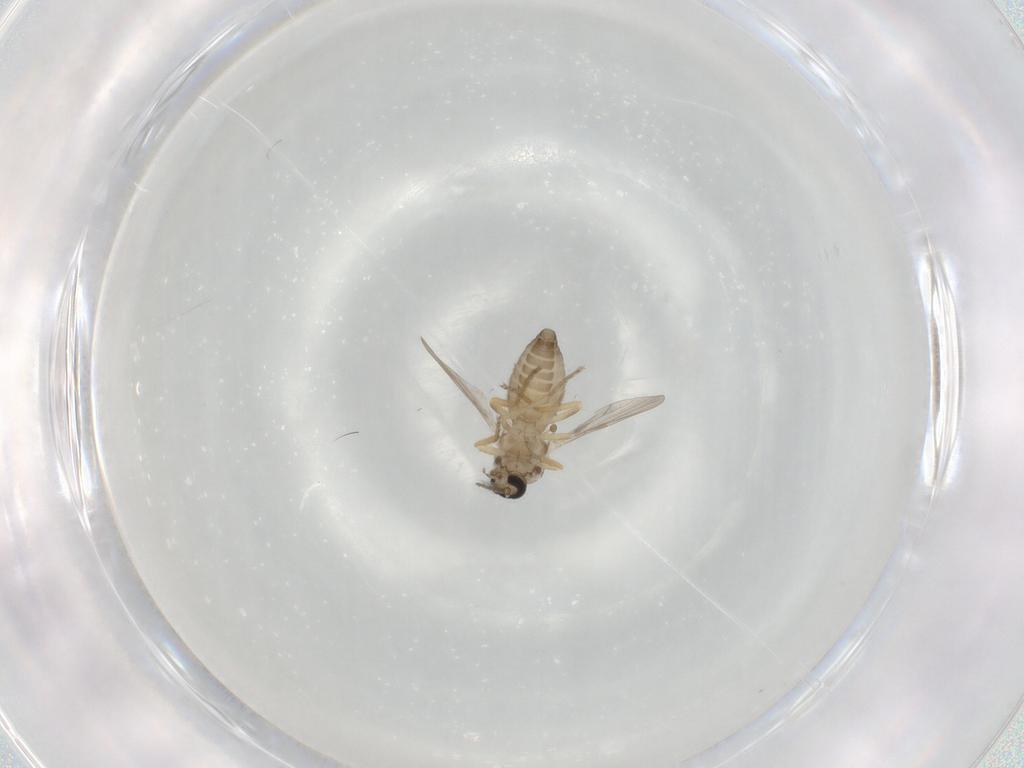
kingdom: Animalia
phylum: Arthropoda
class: Insecta
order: Diptera
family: Ceratopogonidae
